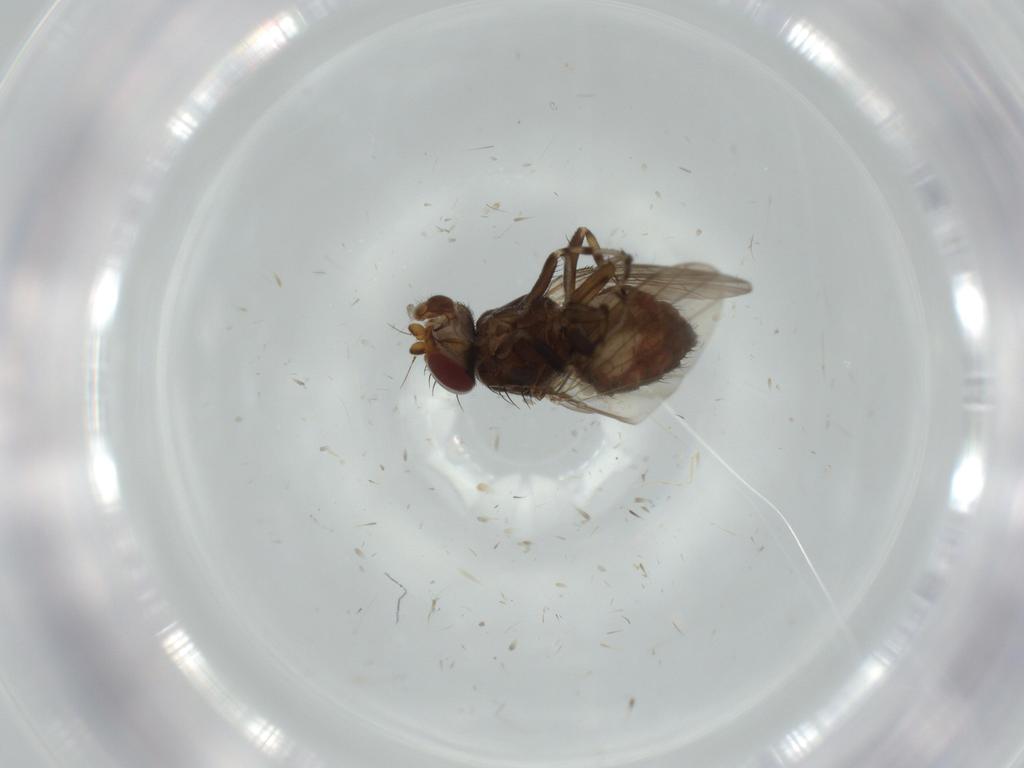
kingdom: Animalia
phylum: Arthropoda
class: Insecta
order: Diptera
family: Heleomyzidae
